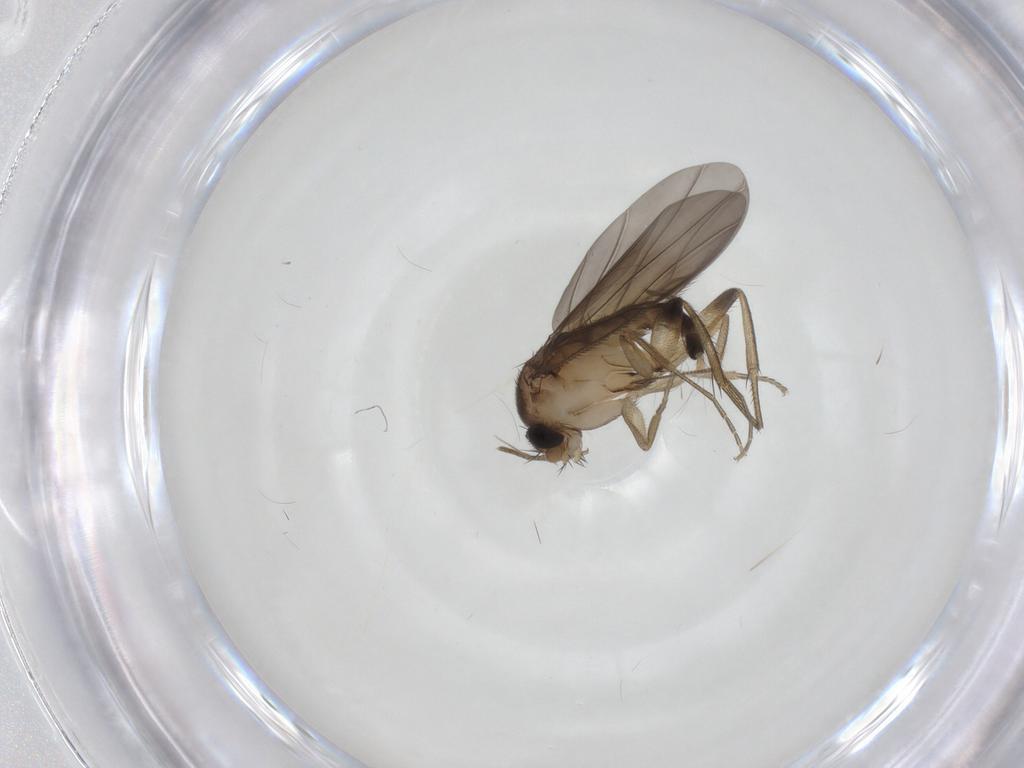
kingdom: Animalia
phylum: Arthropoda
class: Insecta
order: Diptera
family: Phoridae
